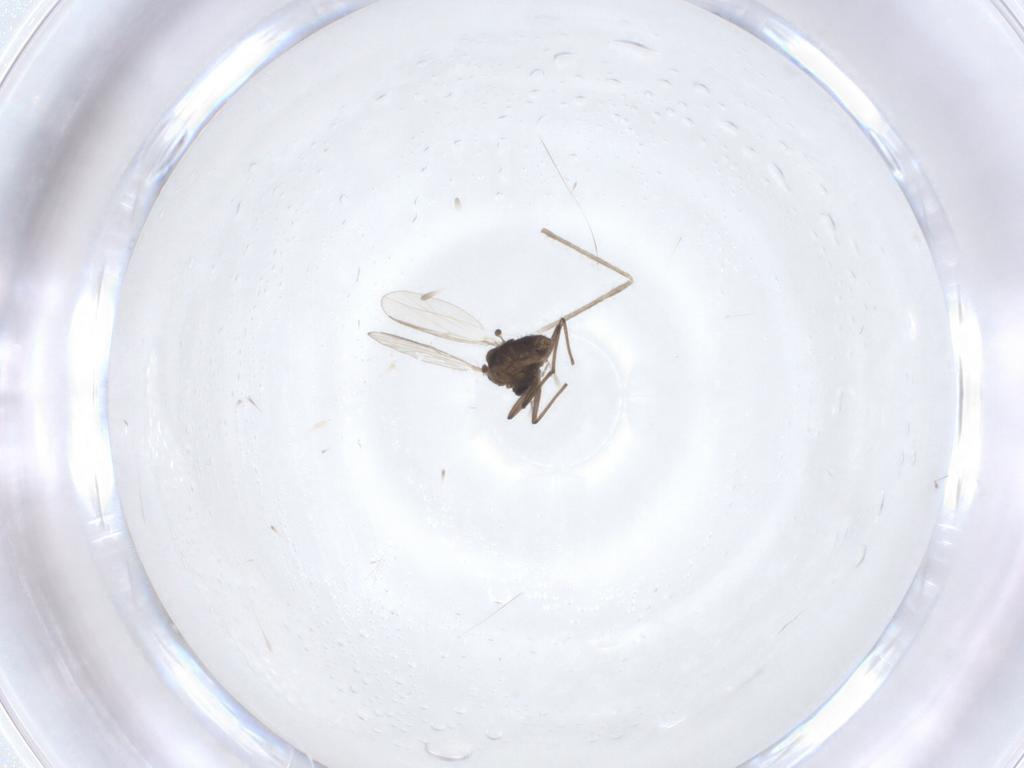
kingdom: Animalia
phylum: Arthropoda
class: Insecta
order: Diptera
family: Chironomidae
